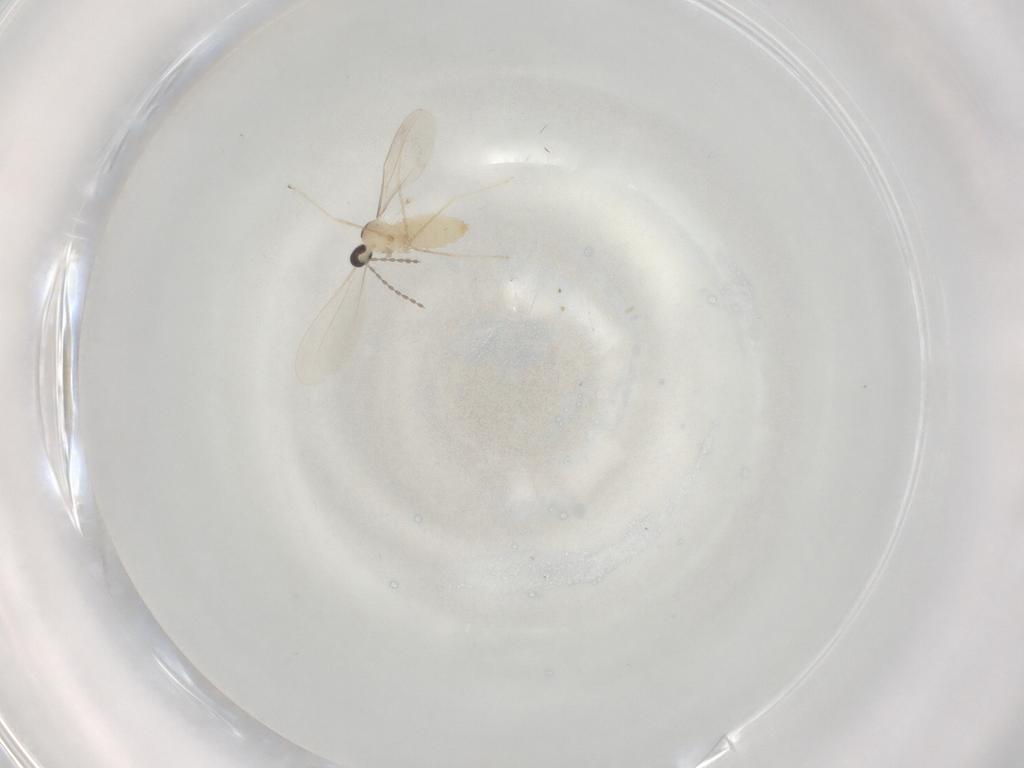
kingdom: Animalia
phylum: Arthropoda
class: Insecta
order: Diptera
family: Cecidomyiidae
